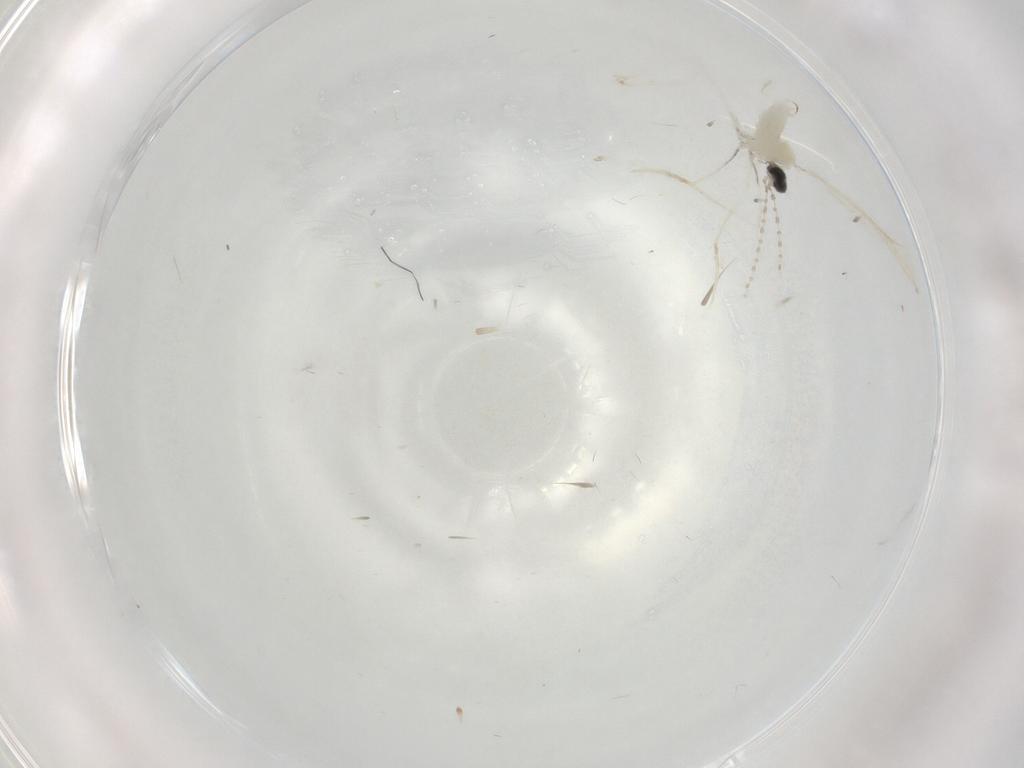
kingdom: Animalia
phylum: Arthropoda
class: Insecta
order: Diptera
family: Cecidomyiidae
